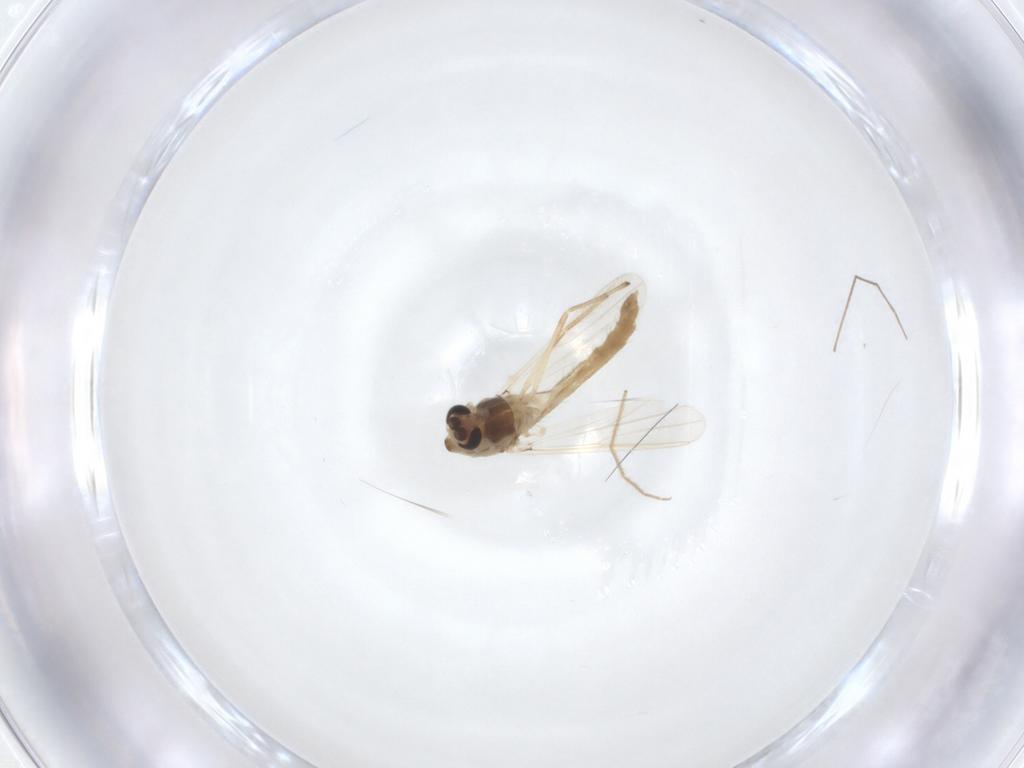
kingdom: Animalia
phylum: Arthropoda
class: Insecta
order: Diptera
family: Chironomidae
